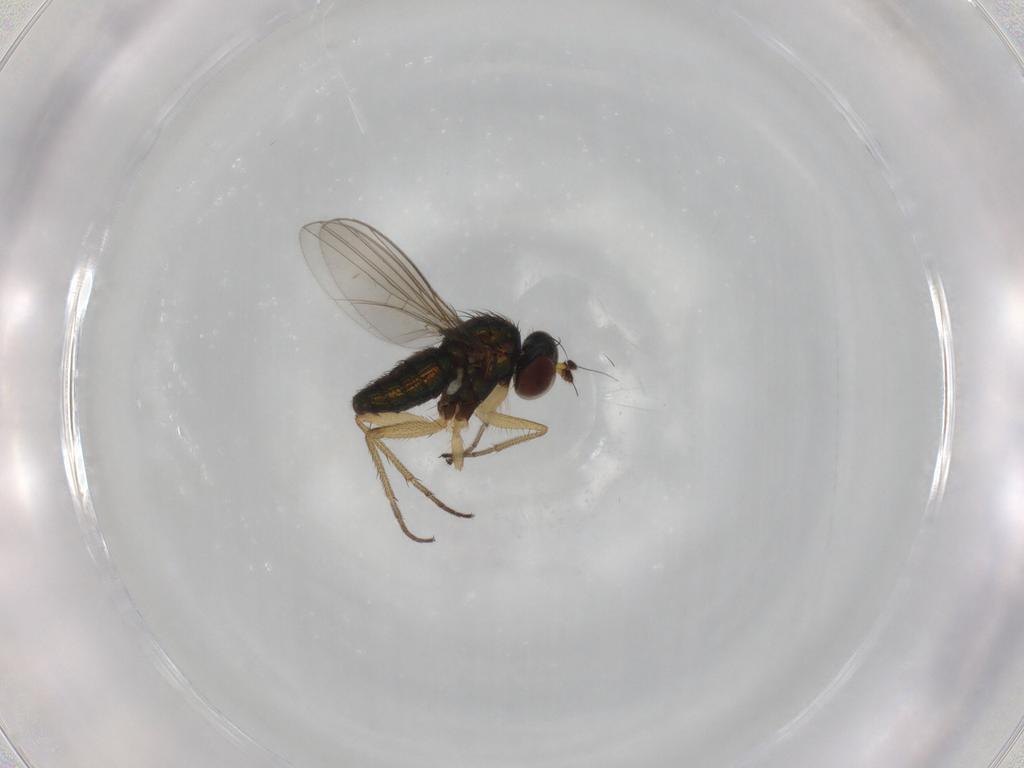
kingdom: Animalia
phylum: Arthropoda
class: Insecta
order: Diptera
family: Dolichopodidae
